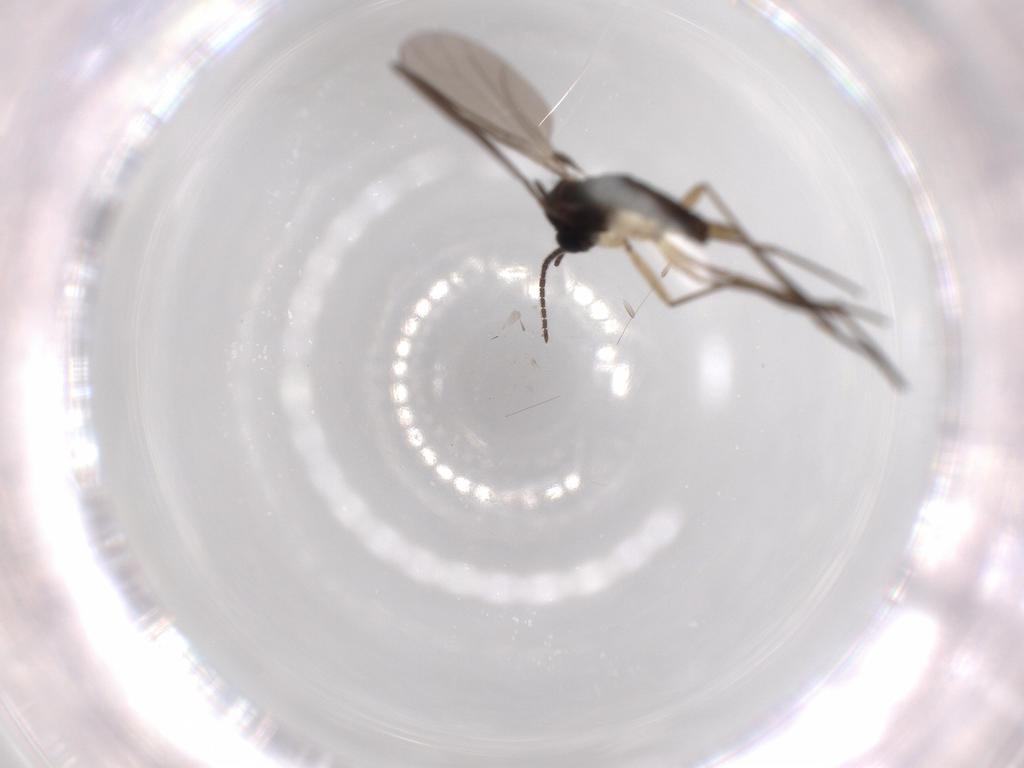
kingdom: Animalia
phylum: Arthropoda
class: Insecta
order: Diptera
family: Sciaridae
